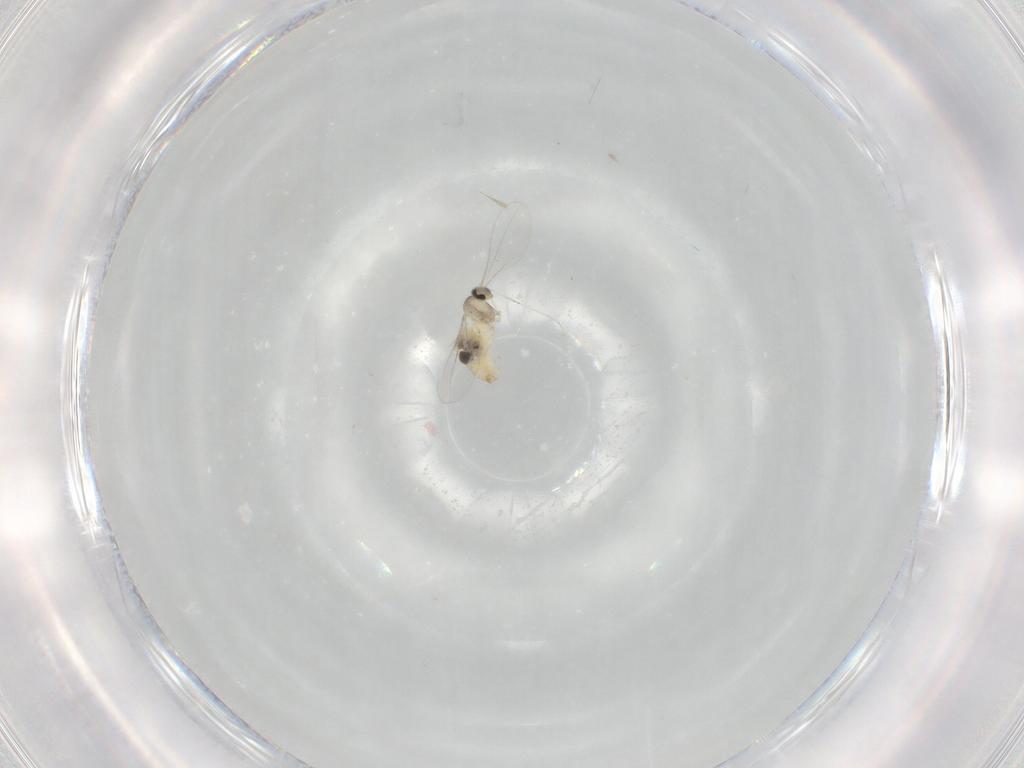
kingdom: Animalia
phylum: Arthropoda
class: Insecta
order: Diptera
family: Cecidomyiidae
